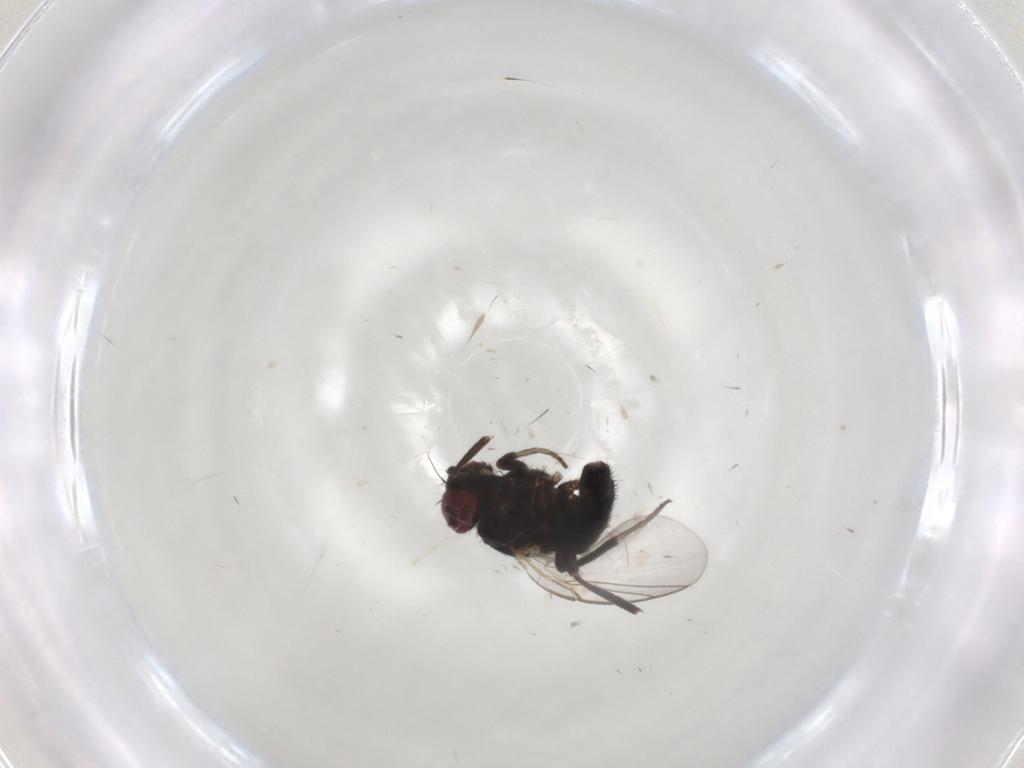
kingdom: Animalia
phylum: Arthropoda
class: Insecta
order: Diptera
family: Cecidomyiidae
